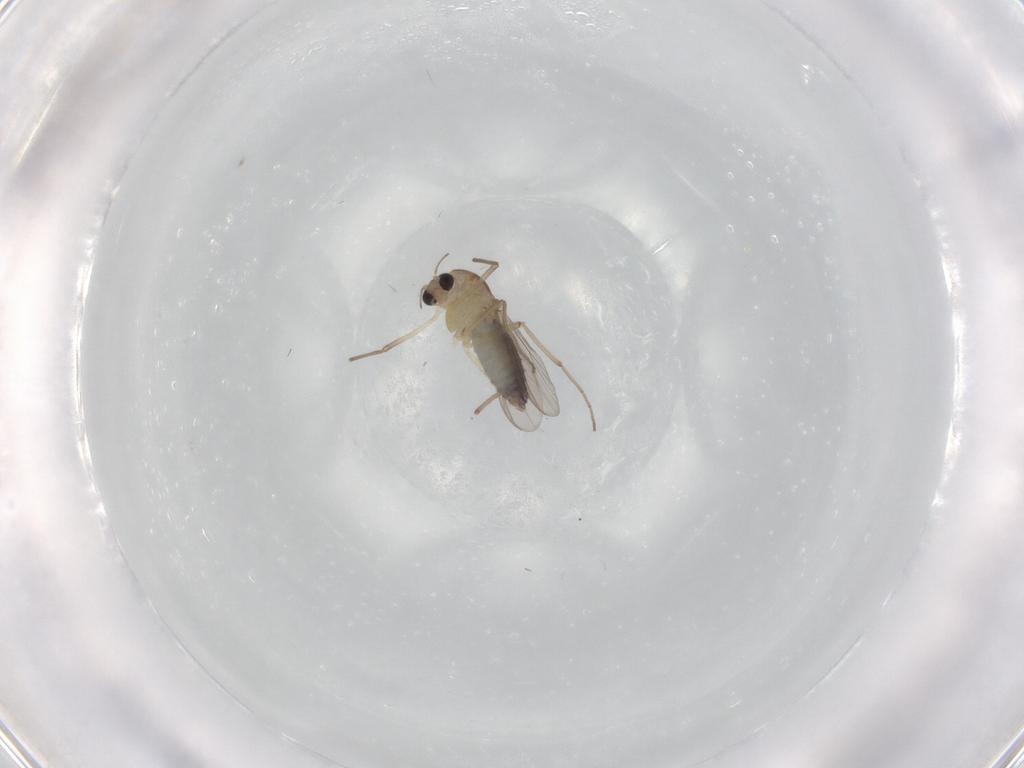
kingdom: Animalia
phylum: Arthropoda
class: Insecta
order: Diptera
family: Chironomidae
